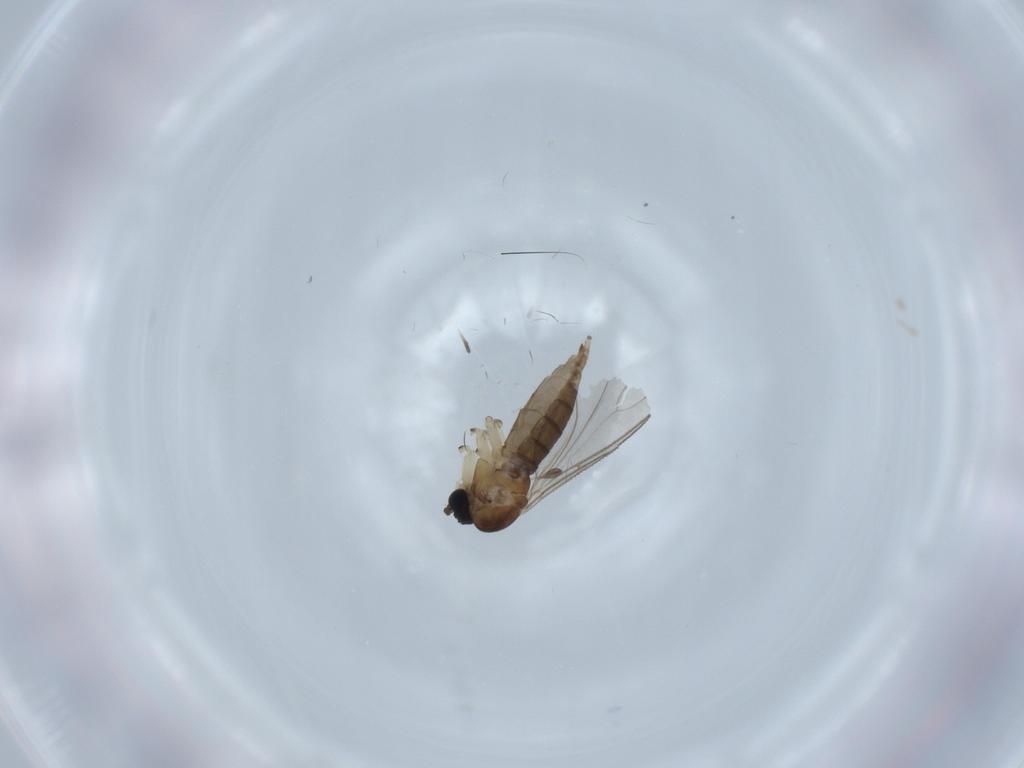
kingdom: Animalia
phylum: Arthropoda
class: Insecta
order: Diptera
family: Sciaridae
